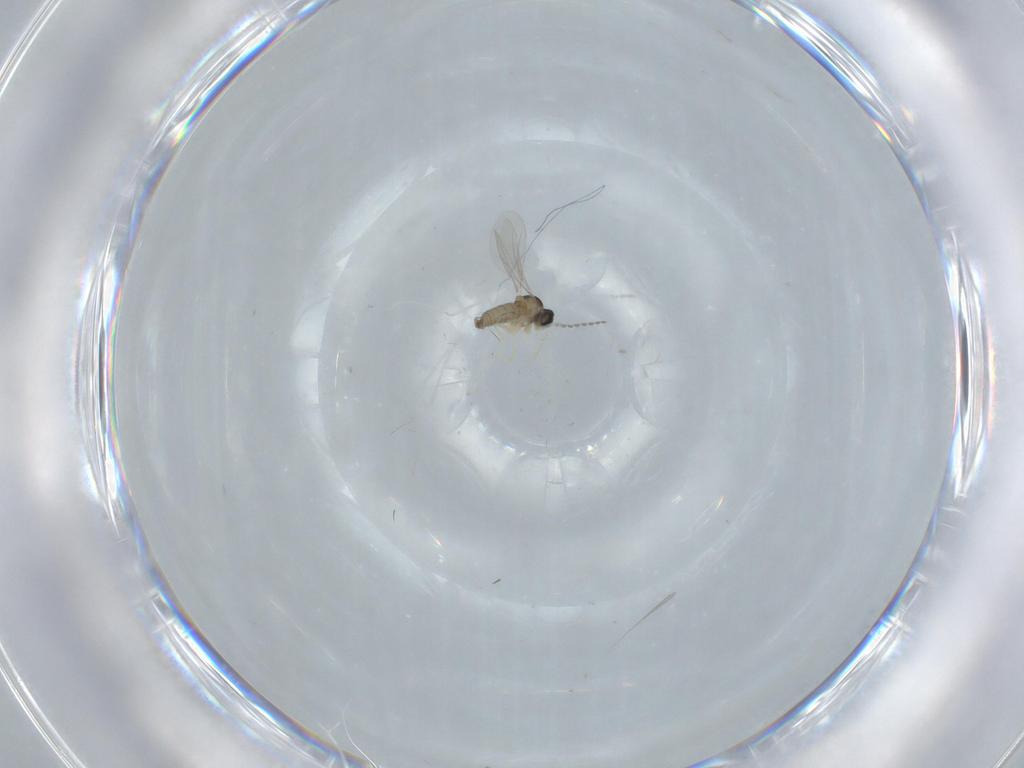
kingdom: Animalia
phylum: Arthropoda
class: Insecta
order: Diptera
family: Cecidomyiidae
